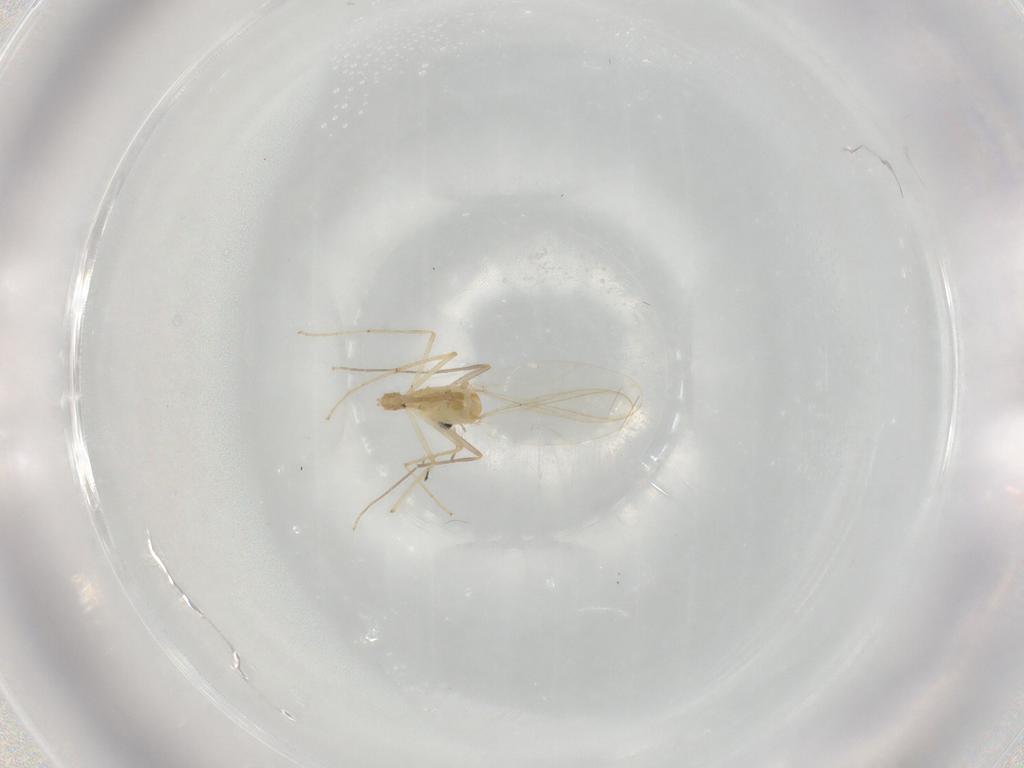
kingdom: Animalia
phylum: Arthropoda
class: Insecta
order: Diptera
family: Chironomidae
